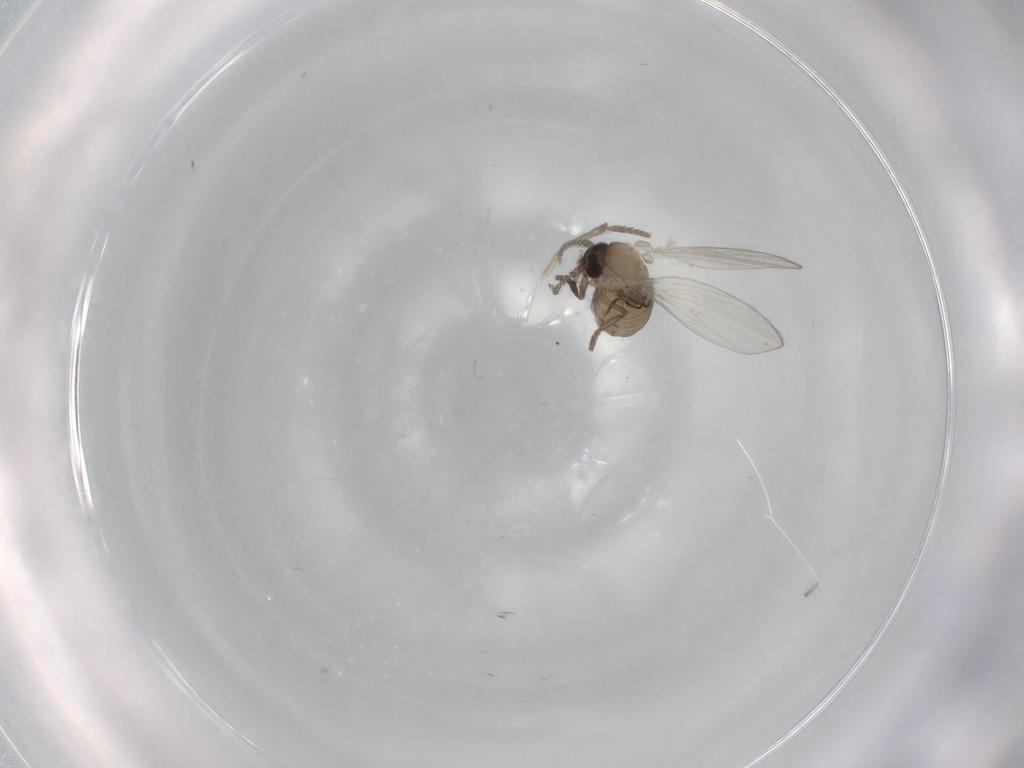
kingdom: Animalia
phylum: Arthropoda
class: Insecta
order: Diptera
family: Psychodidae
